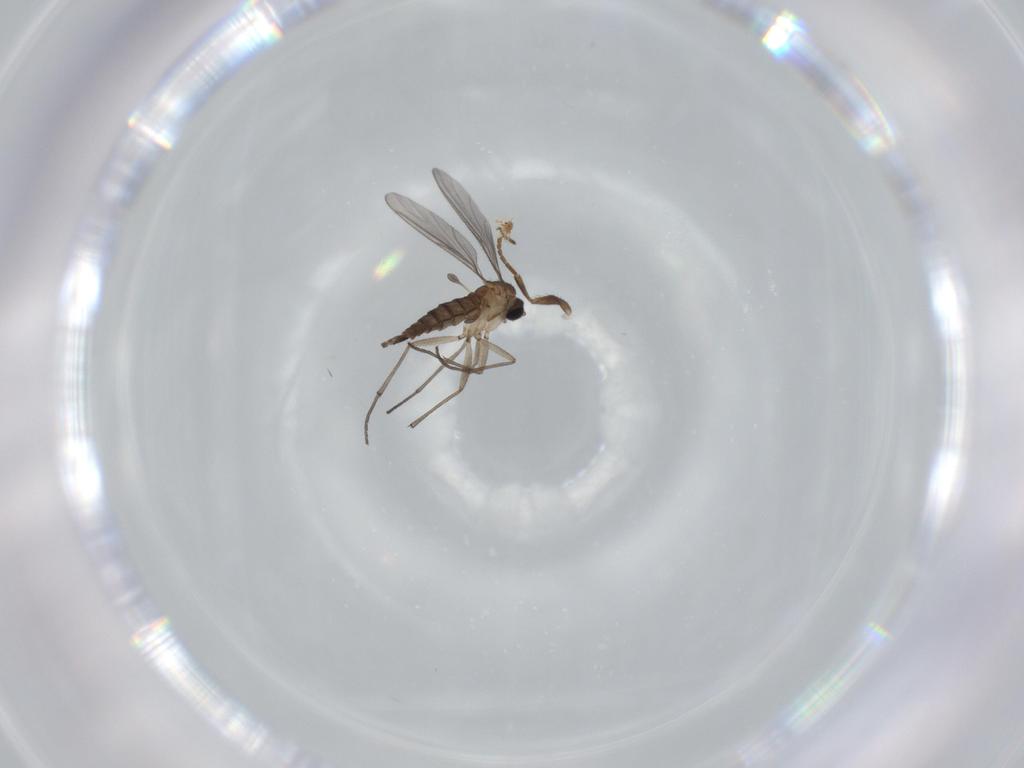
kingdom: Animalia
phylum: Arthropoda
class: Insecta
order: Diptera
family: Sciaridae
